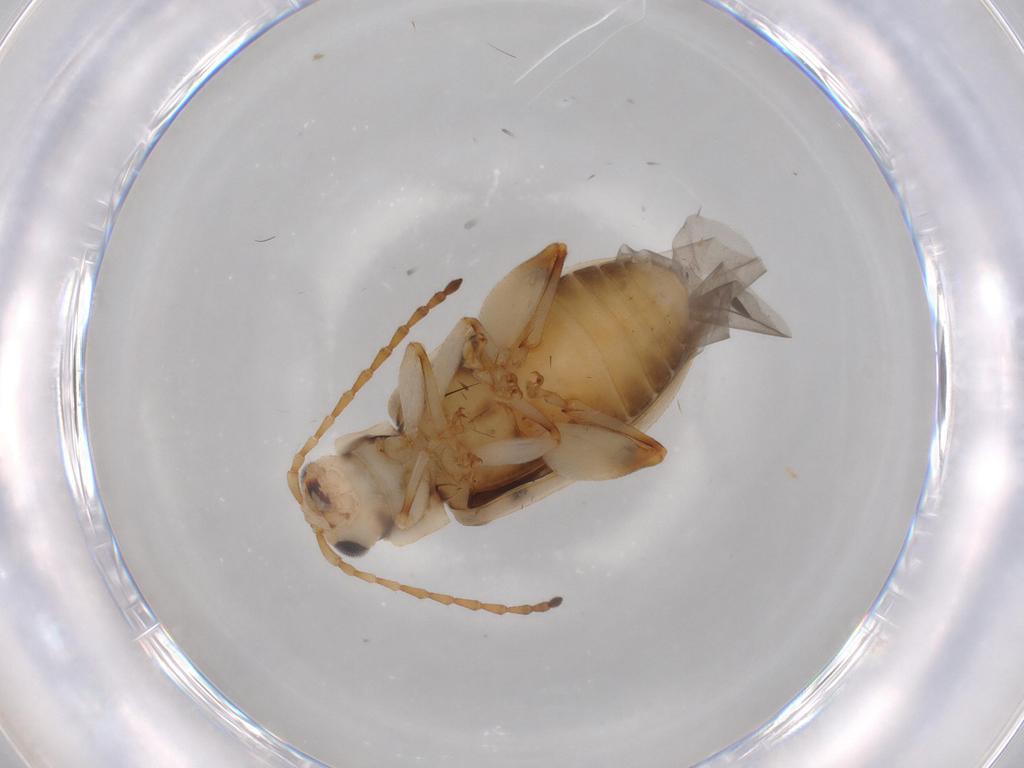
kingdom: Animalia
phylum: Arthropoda
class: Insecta
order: Coleoptera
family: Chrysomelidae
